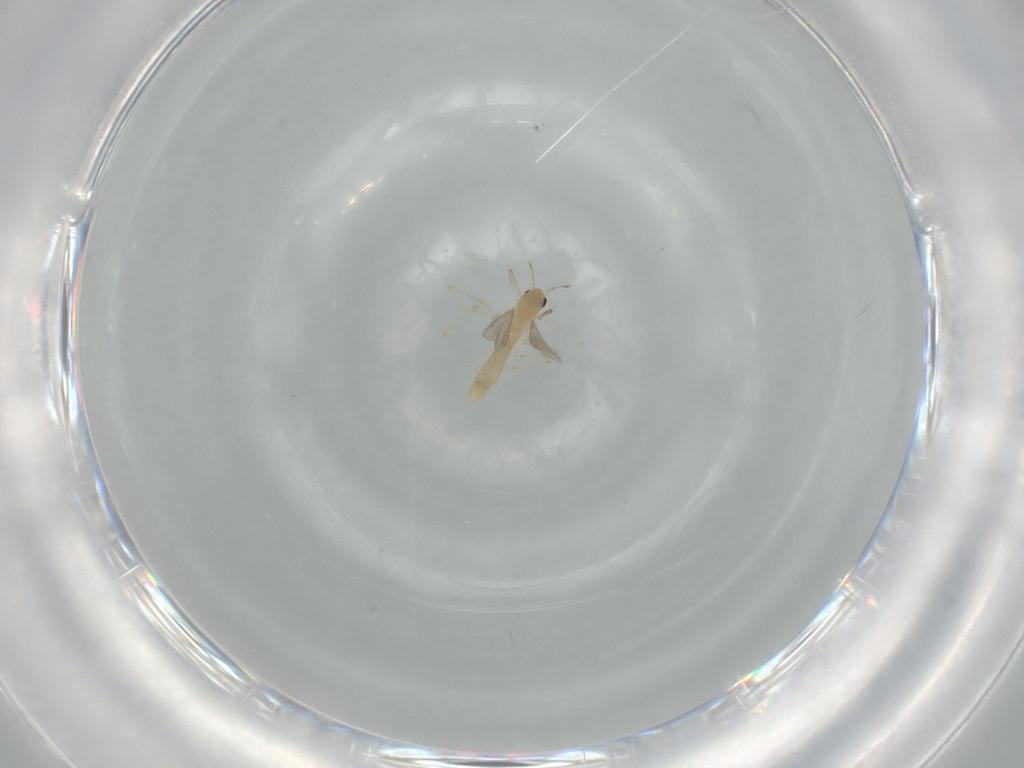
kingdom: Animalia
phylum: Arthropoda
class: Insecta
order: Diptera
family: Chironomidae
